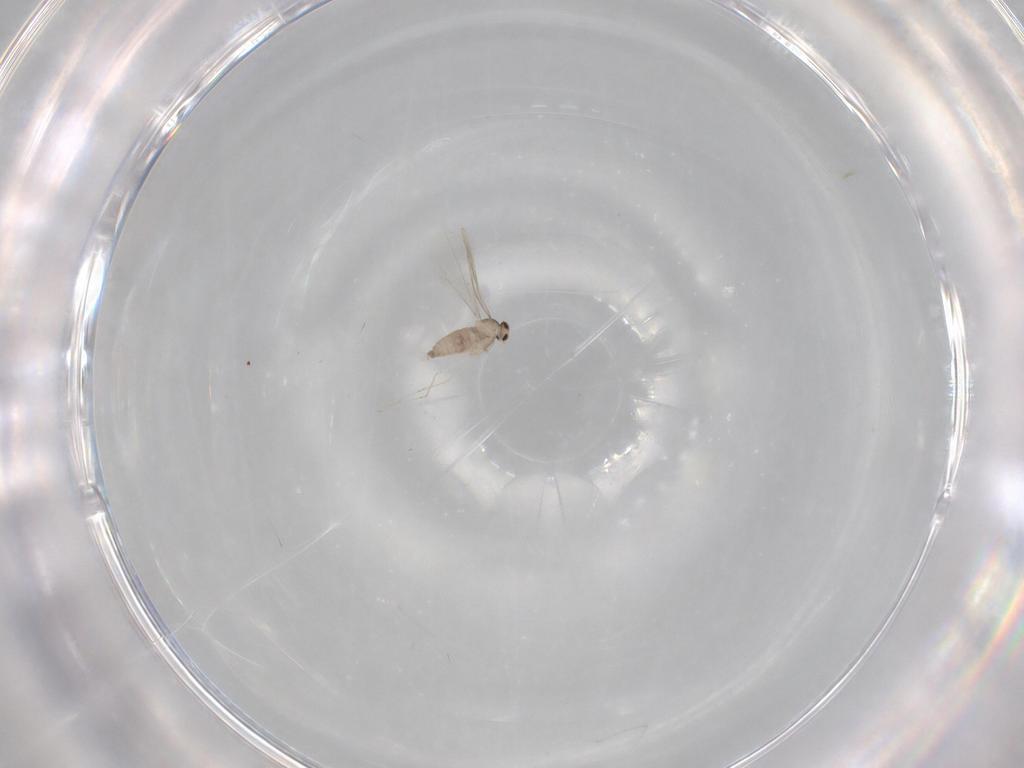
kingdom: Animalia
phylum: Arthropoda
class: Insecta
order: Diptera
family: Cecidomyiidae
